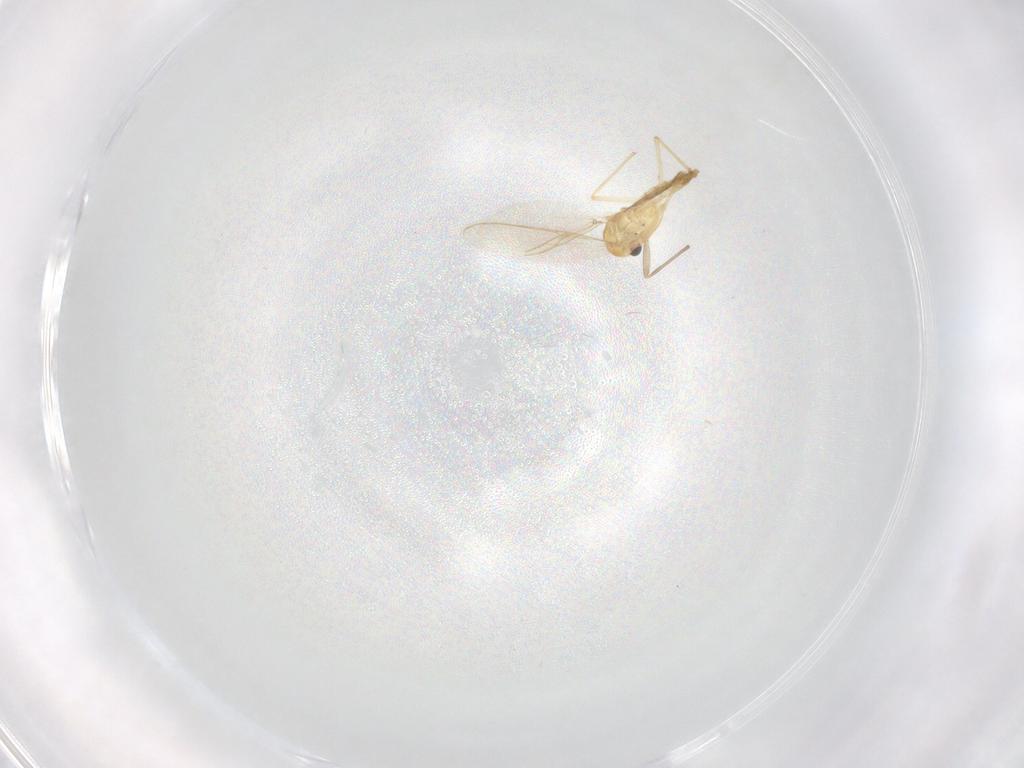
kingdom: Animalia
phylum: Arthropoda
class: Insecta
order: Diptera
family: Chironomidae
